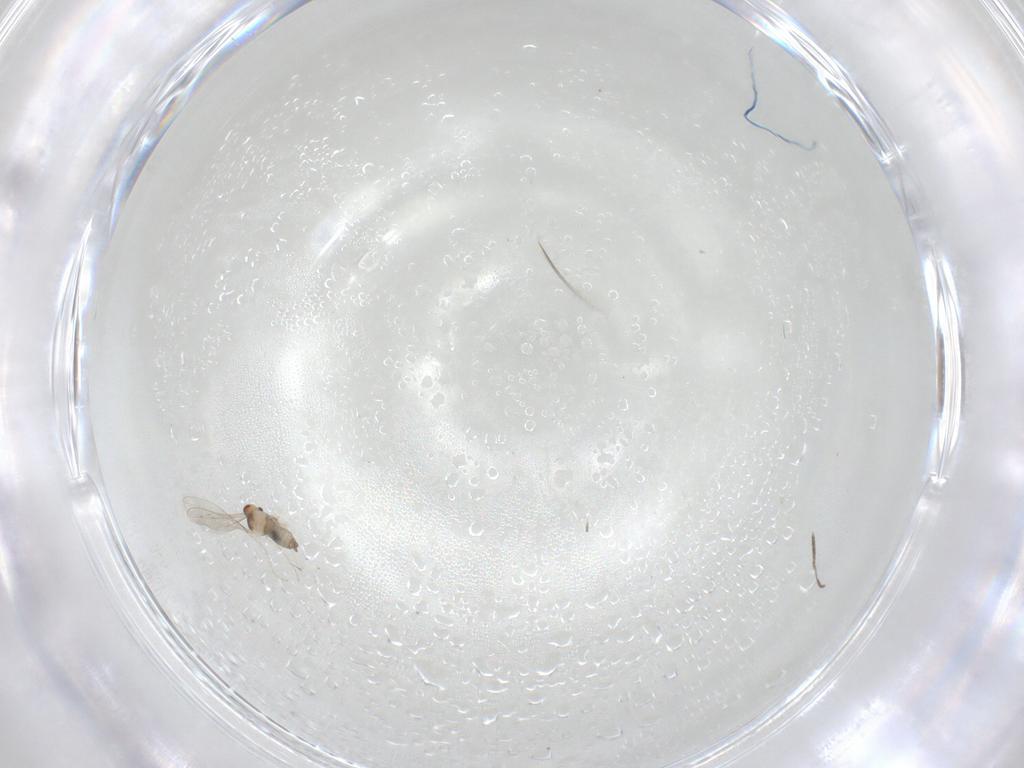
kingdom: Animalia
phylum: Arthropoda
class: Insecta
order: Diptera
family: Cecidomyiidae
